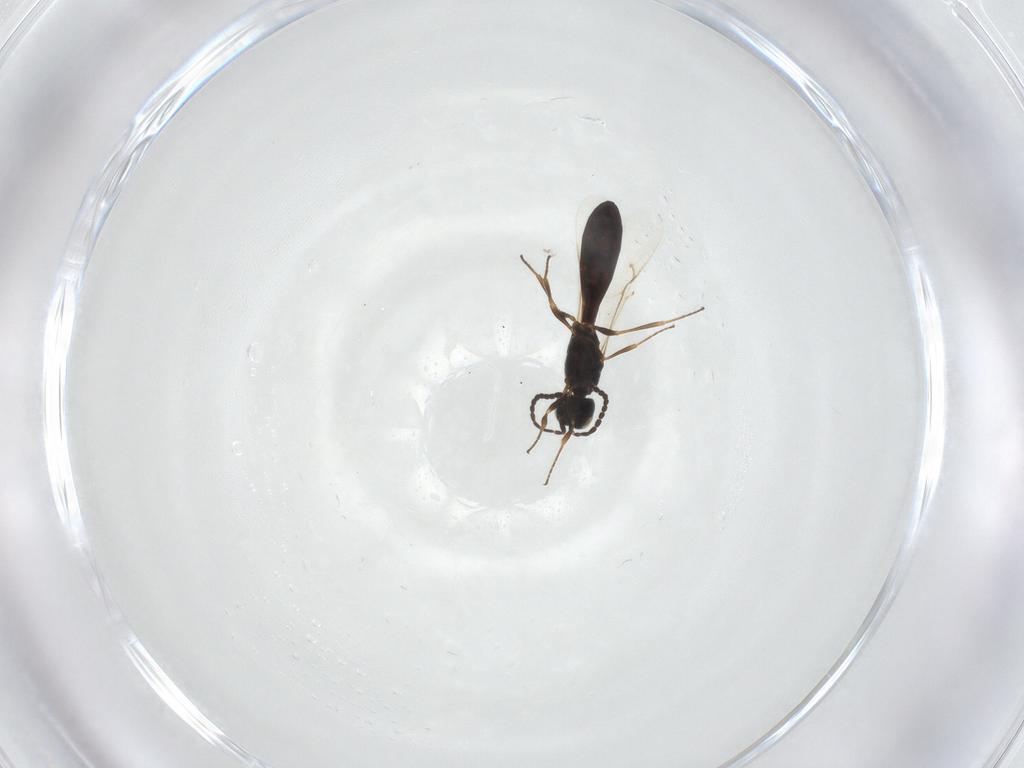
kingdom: Animalia
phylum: Arthropoda
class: Insecta
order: Hymenoptera
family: Scelionidae
